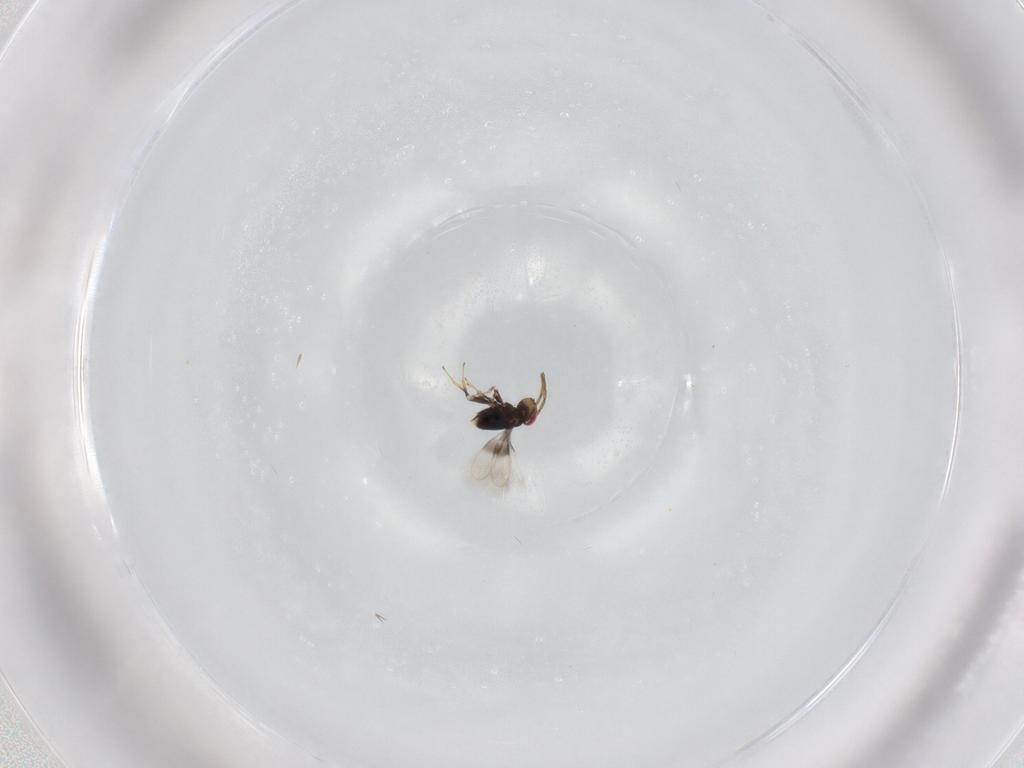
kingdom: Animalia
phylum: Arthropoda
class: Insecta
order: Hymenoptera
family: Azotidae
